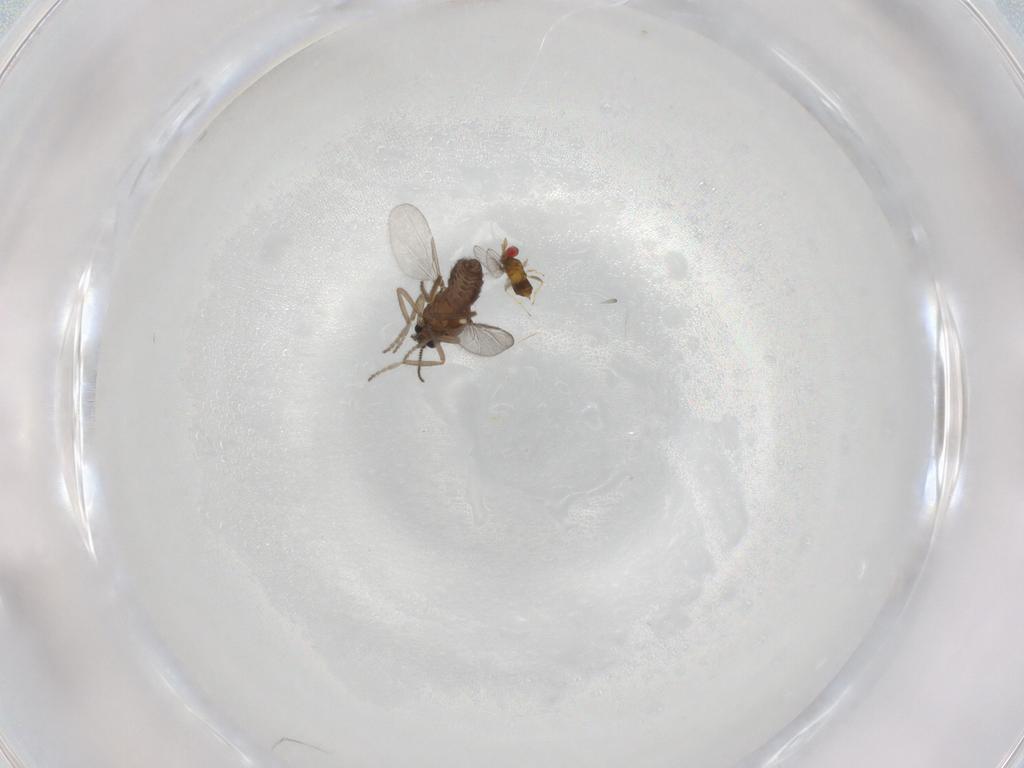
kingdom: Animalia
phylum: Arthropoda
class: Insecta
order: Diptera
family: Ceratopogonidae
